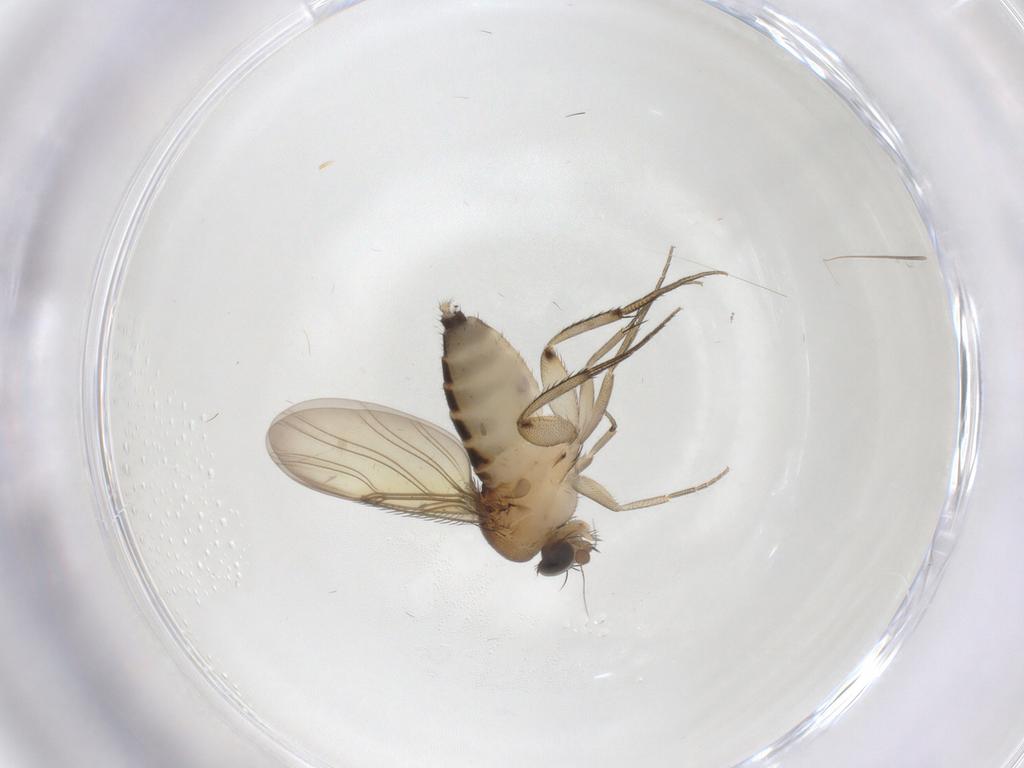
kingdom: Animalia
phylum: Arthropoda
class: Insecta
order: Diptera
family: Phoridae
